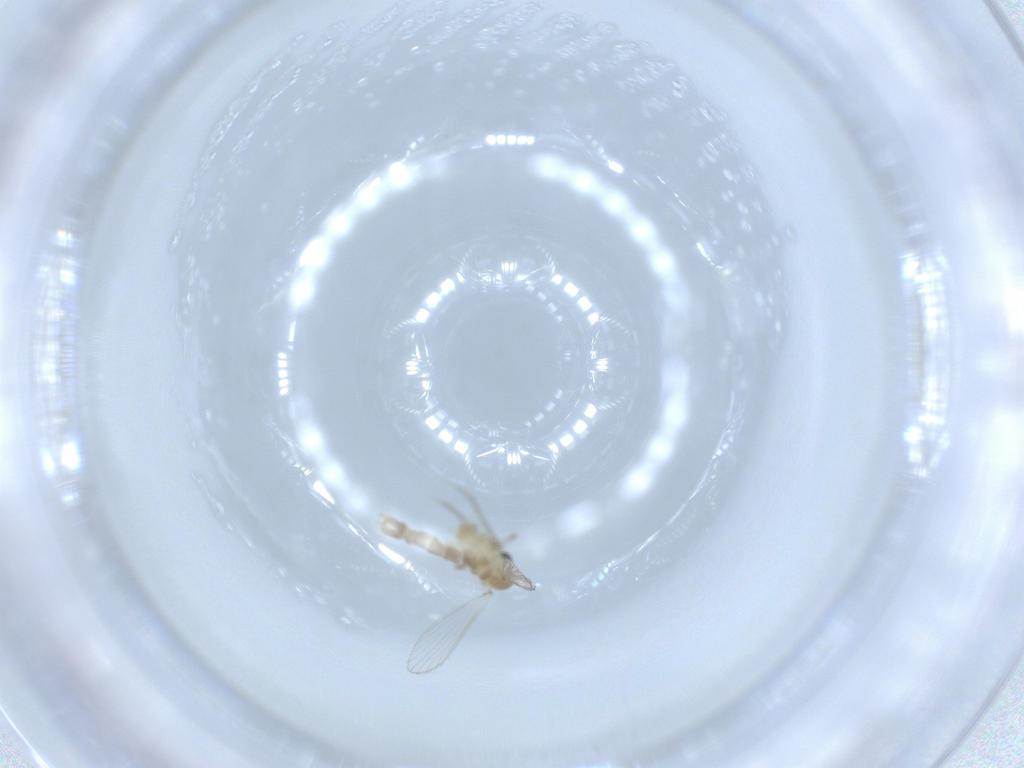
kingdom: Animalia
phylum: Arthropoda
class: Insecta
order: Diptera
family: Psychodidae
